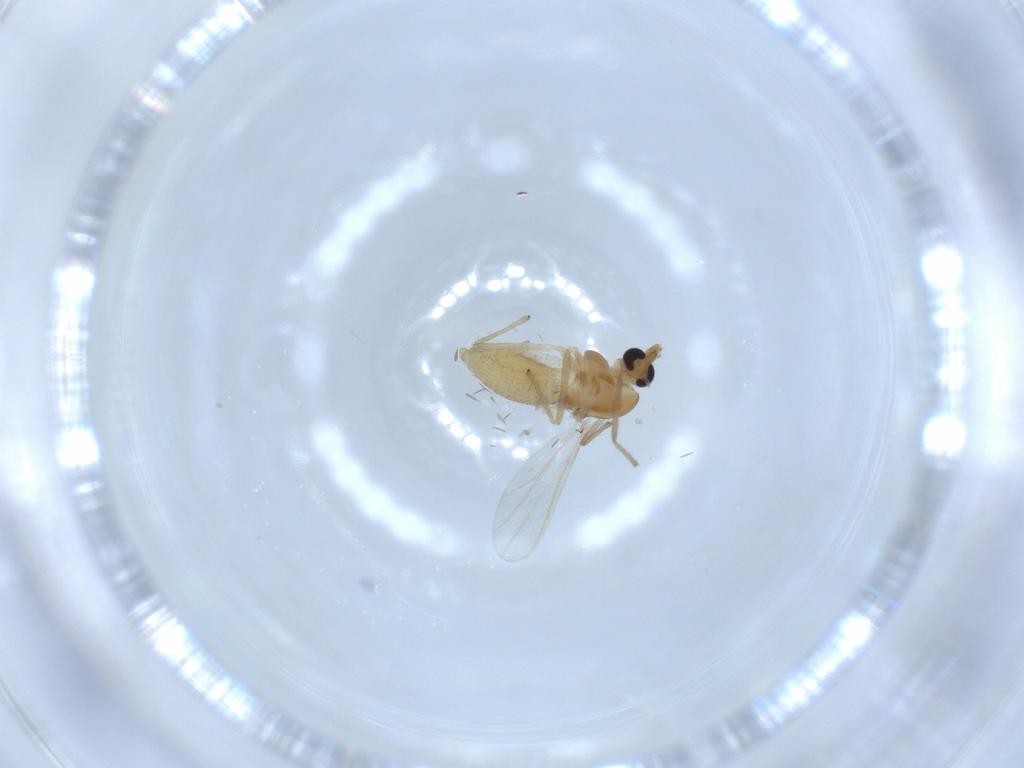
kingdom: Animalia
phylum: Arthropoda
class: Insecta
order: Diptera
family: Chironomidae
